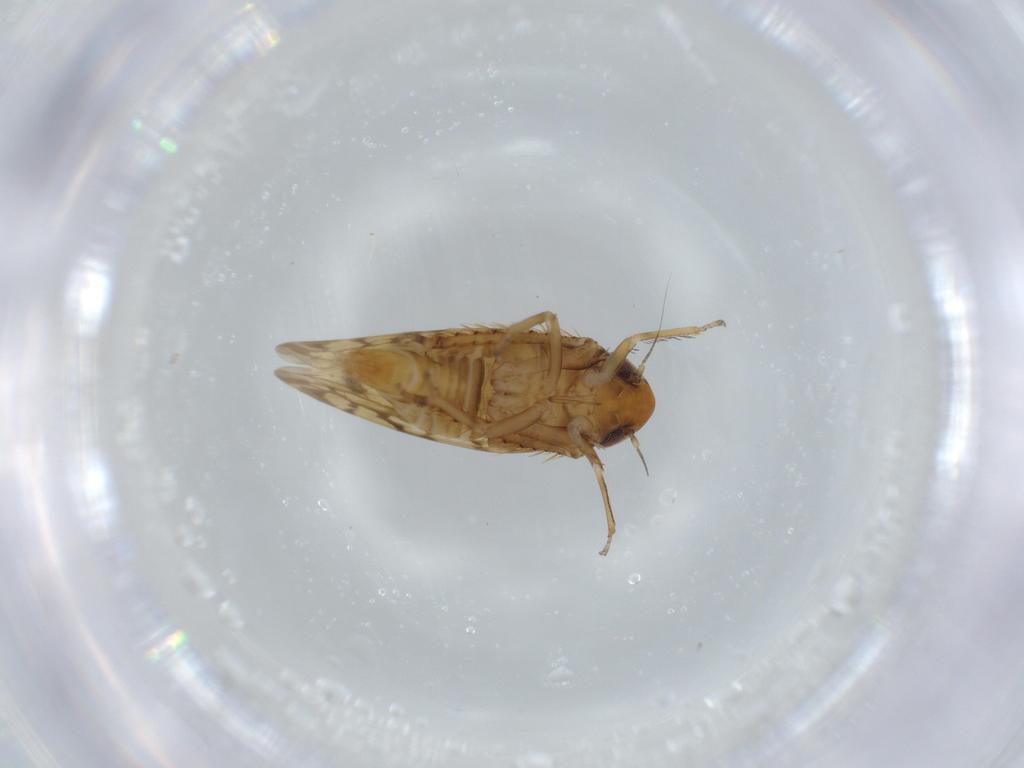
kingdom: Animalia
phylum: Arthropoda
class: Insecta
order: Hemiptera
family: Cicadellidae
